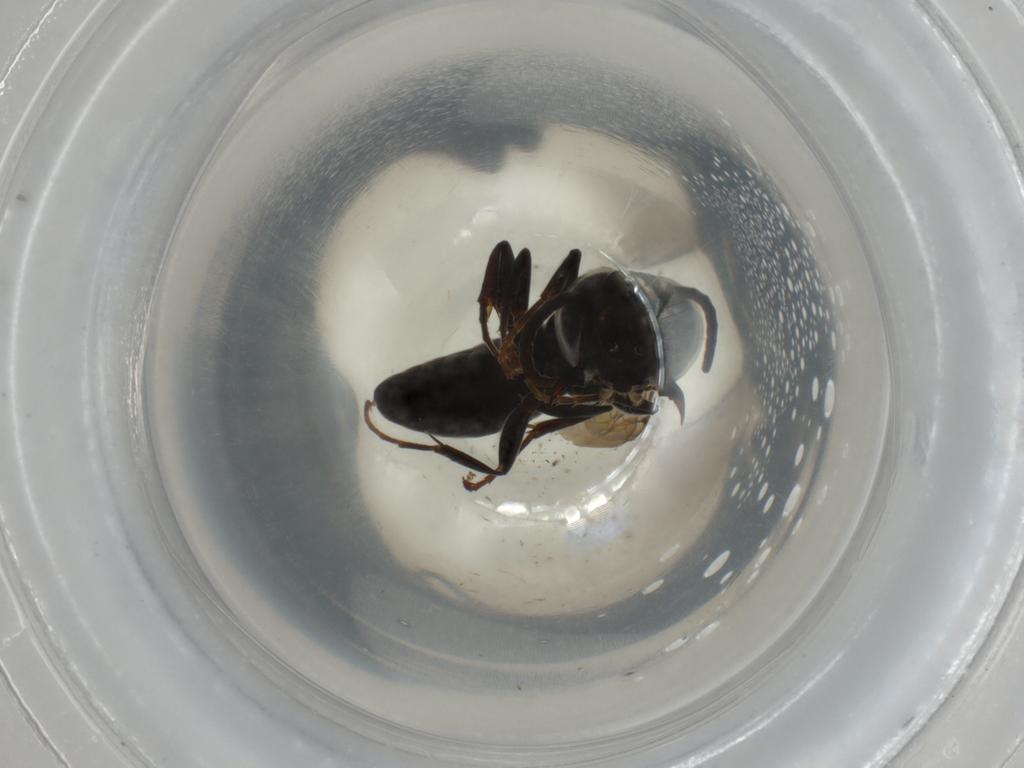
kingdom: Animalia
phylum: Arthropoda
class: Insecta
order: Hymenoptera
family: Crabronidae
